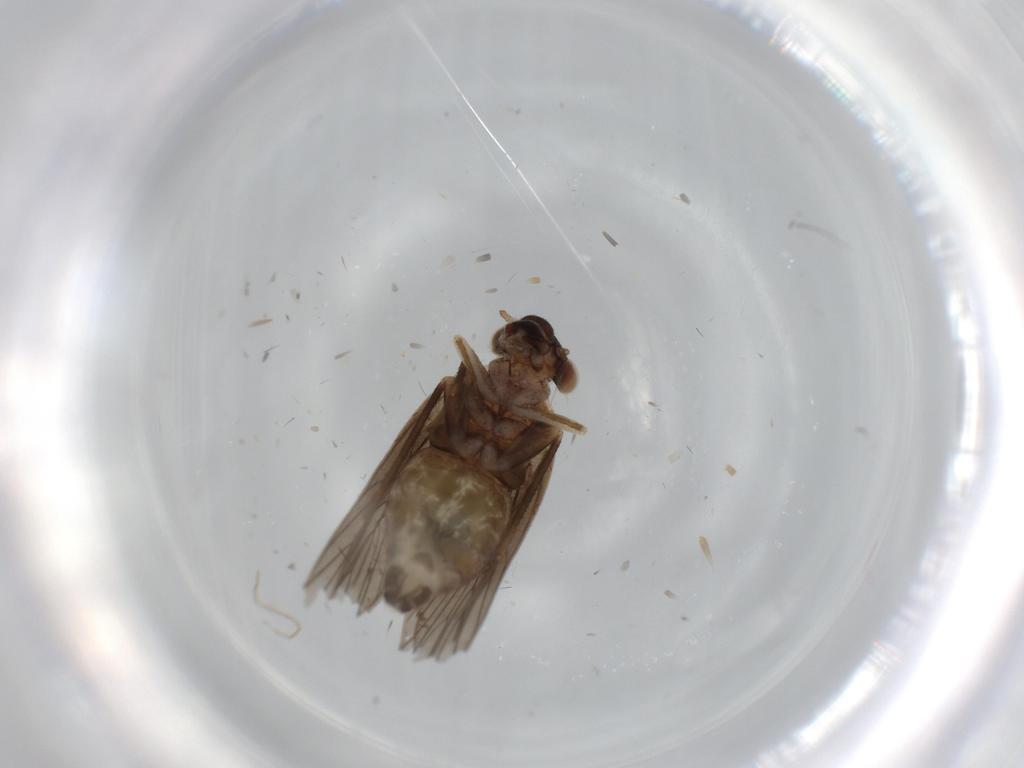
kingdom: Animalia
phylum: Arthropoda
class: Insecta
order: Psocodea
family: Lepidopsocidae
